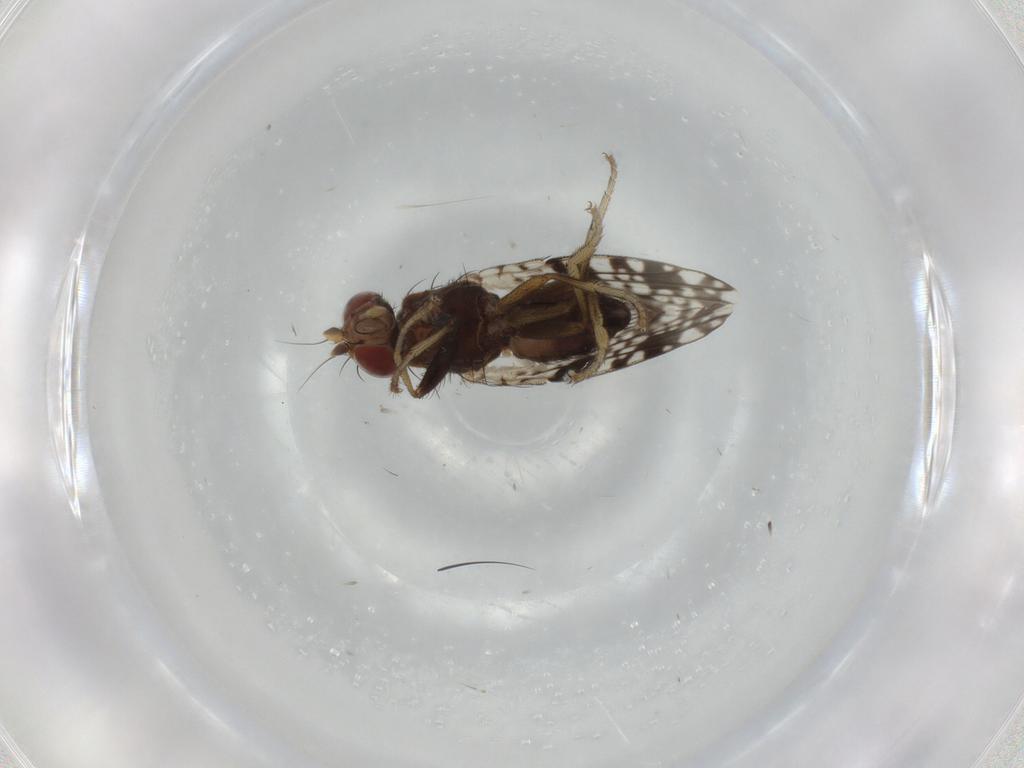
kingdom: Animalia
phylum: Arthropoda
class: Insecta
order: Diptera
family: Tephritidae
